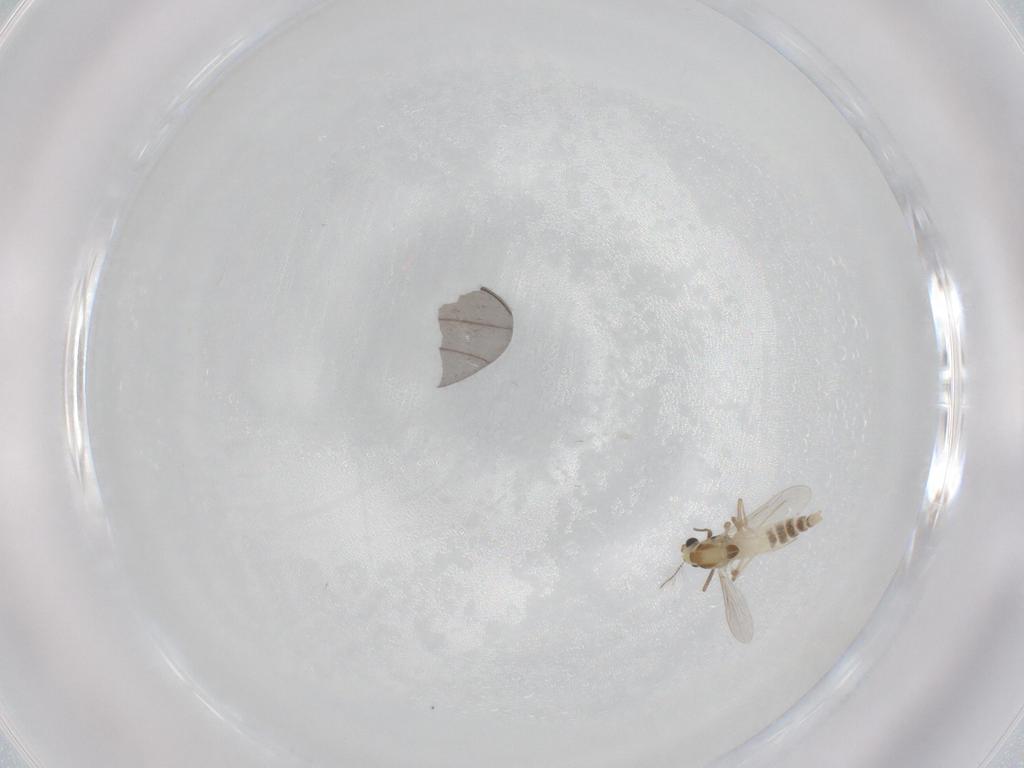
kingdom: Animalia
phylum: Arthropoda
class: Insecta
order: Diptera
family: Chironomidae
